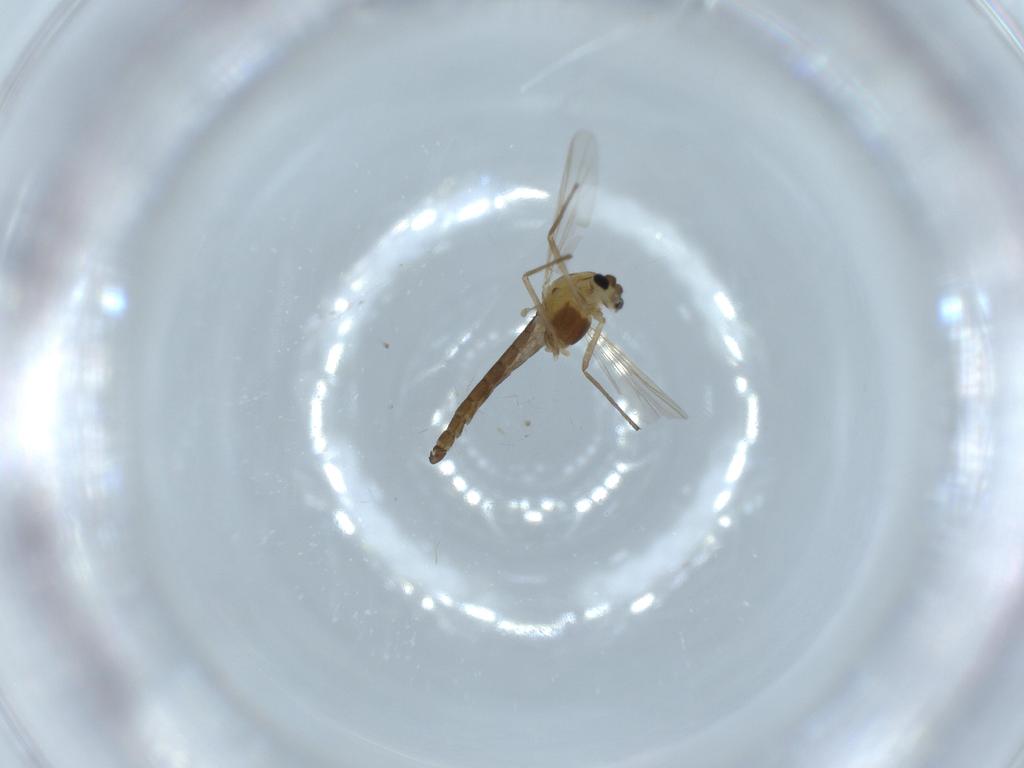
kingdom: Animalia
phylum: Arthropoda
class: Insecta
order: Diptera
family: Chironomidae
